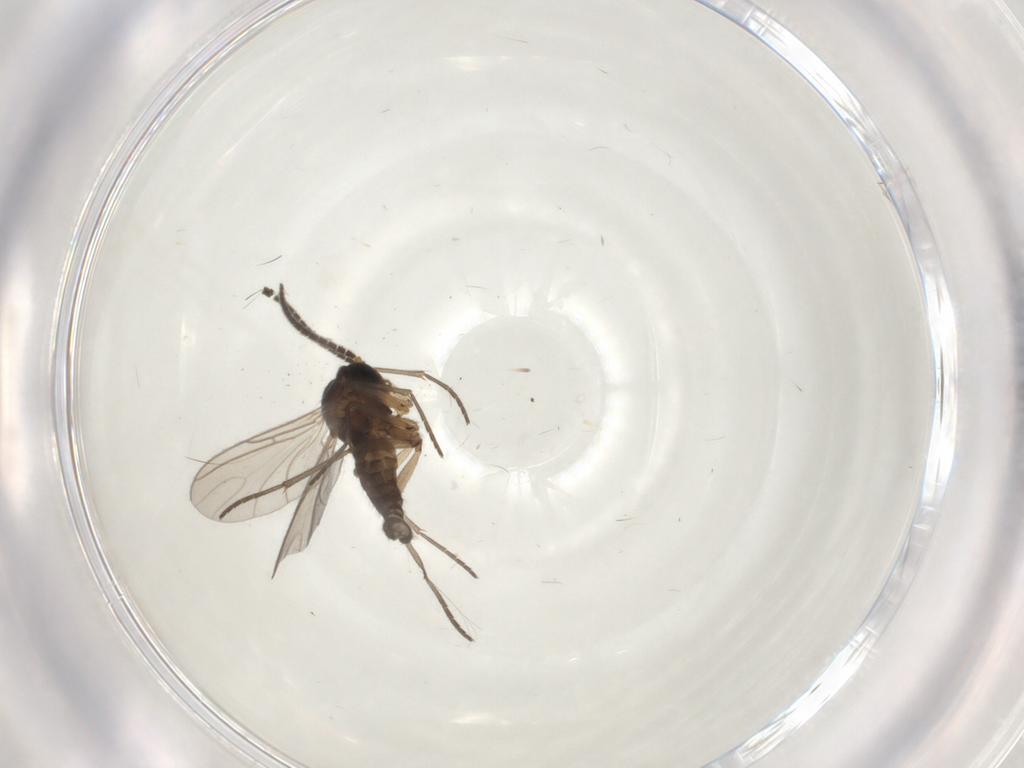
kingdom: Animalia
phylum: Arthropoda
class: Insecta
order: Diptera
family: Sciaridae
